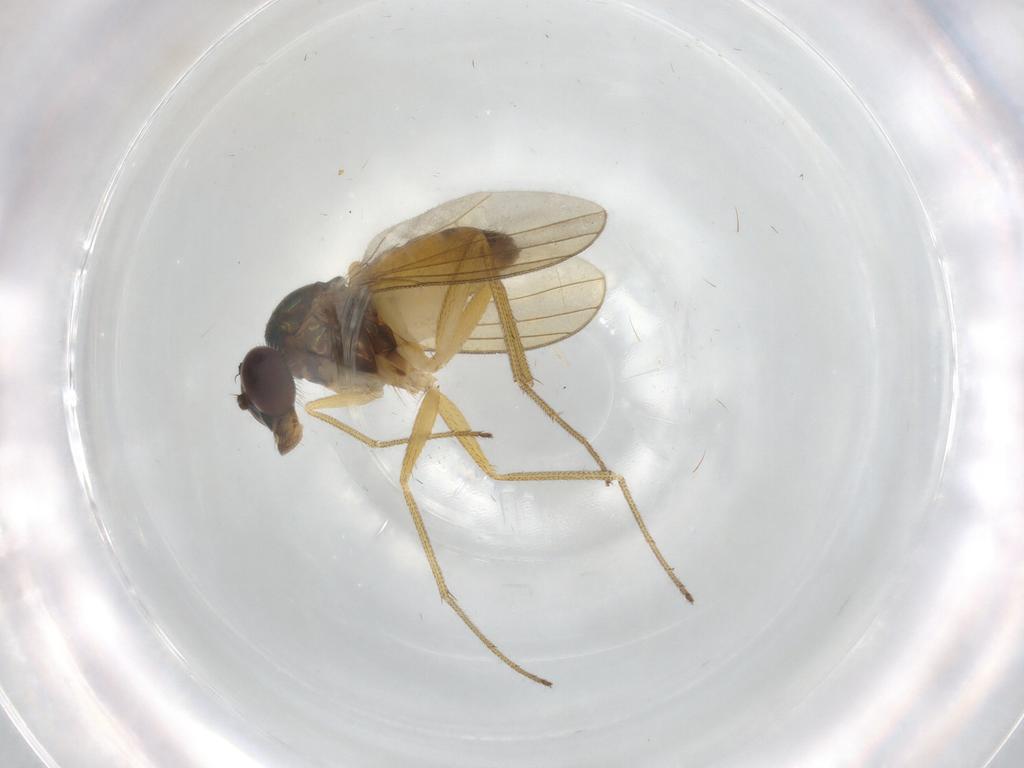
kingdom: Animalia
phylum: Arthropoda
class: Insecta
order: Diptera
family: Dolichopodidae
